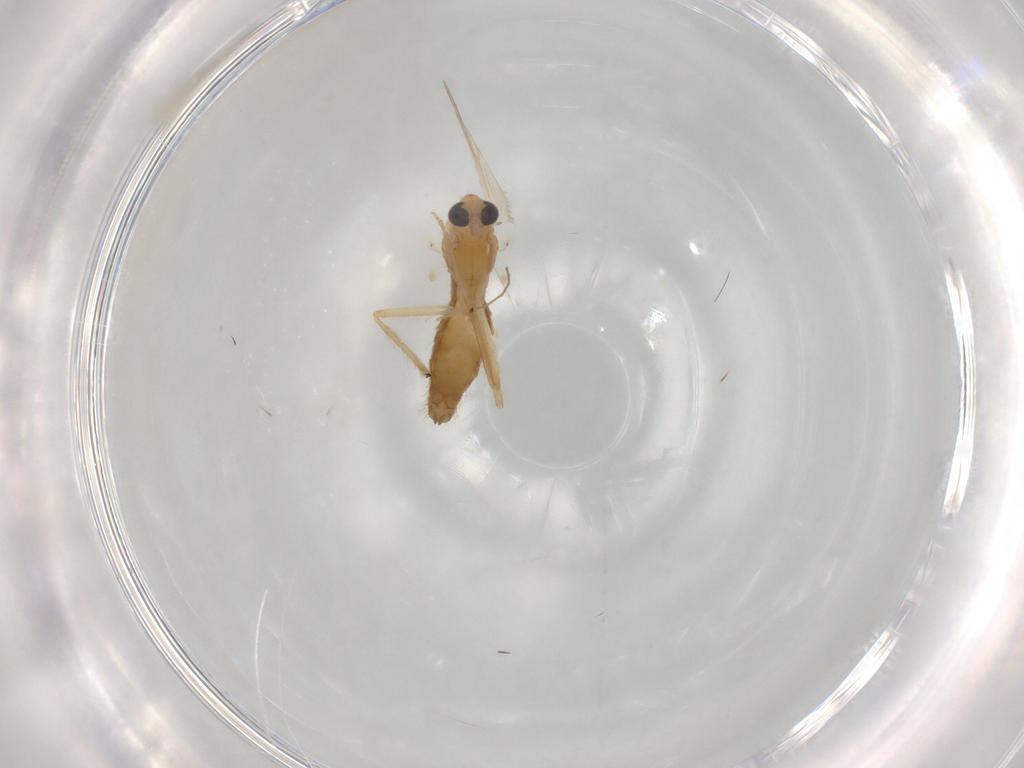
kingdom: Animalia
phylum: Arthropoda
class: Insecta
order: Diptera
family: Chironomidae
